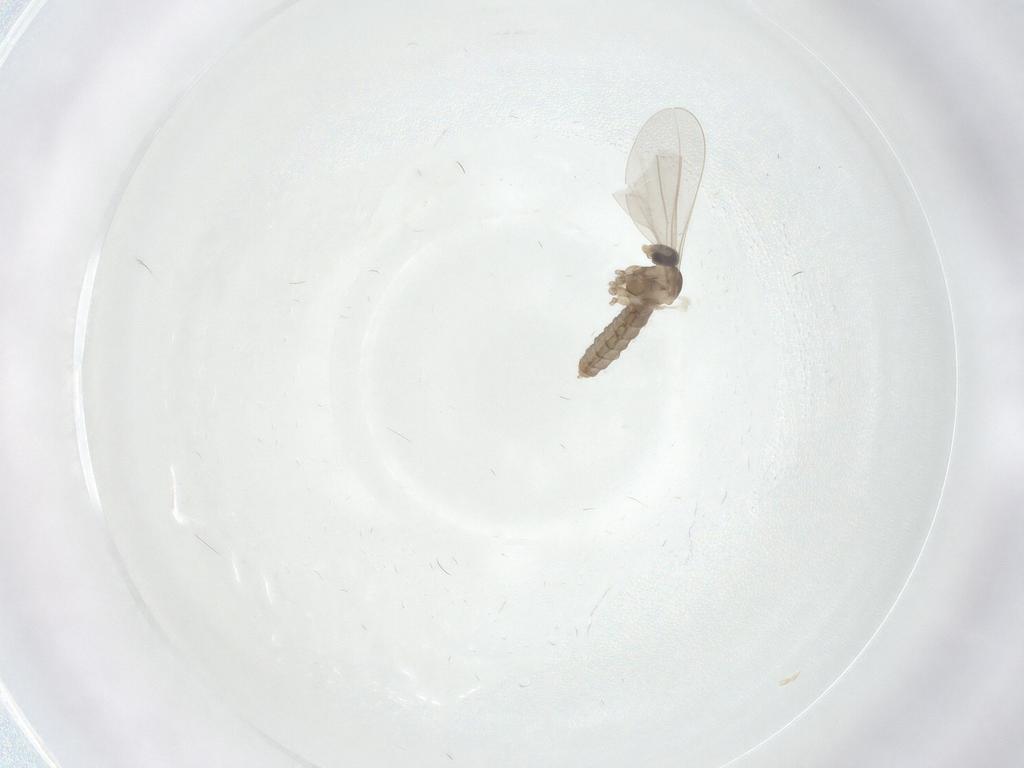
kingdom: Animalia
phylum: Arthropoda
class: Insecta
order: Diptera
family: Cecidomyiidae
